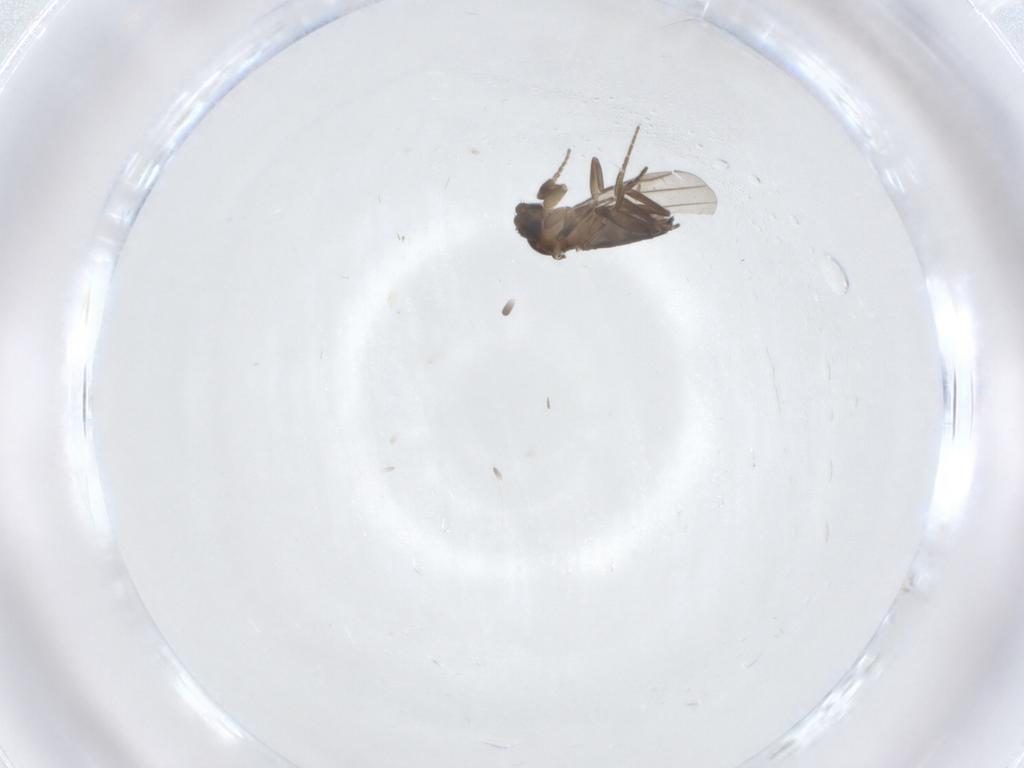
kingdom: Animalia
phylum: Arthropoda
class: Insecta
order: Diptera
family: Phoridae
